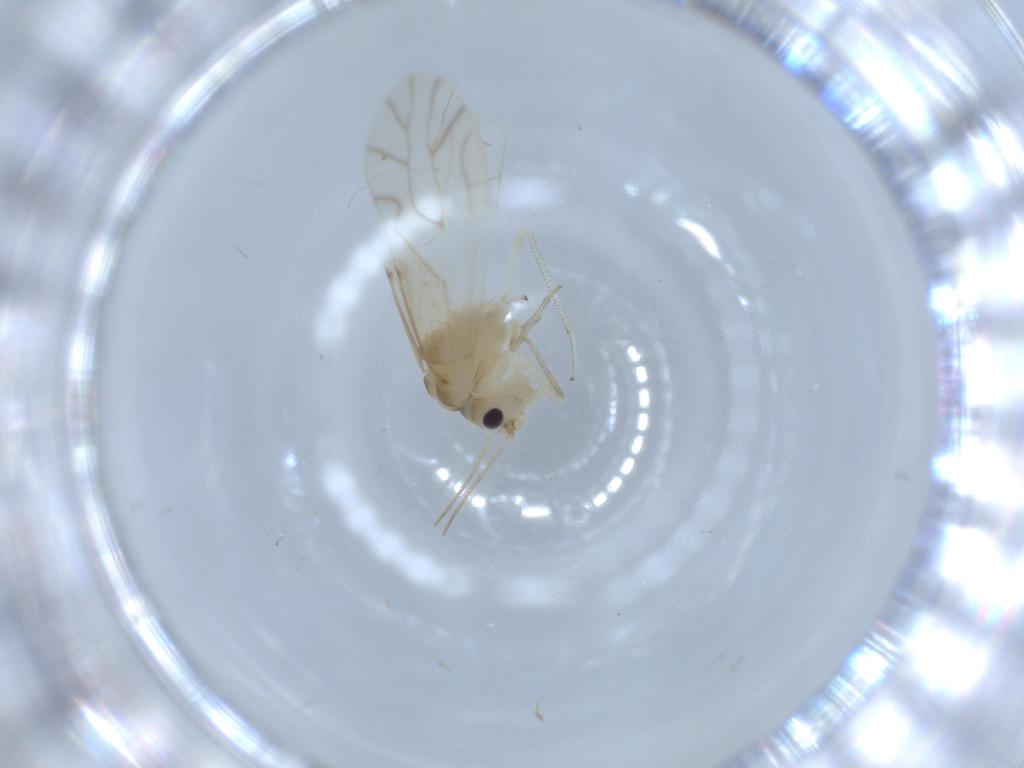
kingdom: Animalia
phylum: Arthropoda
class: Insecta
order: Psocodea
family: Caeciliusidae
